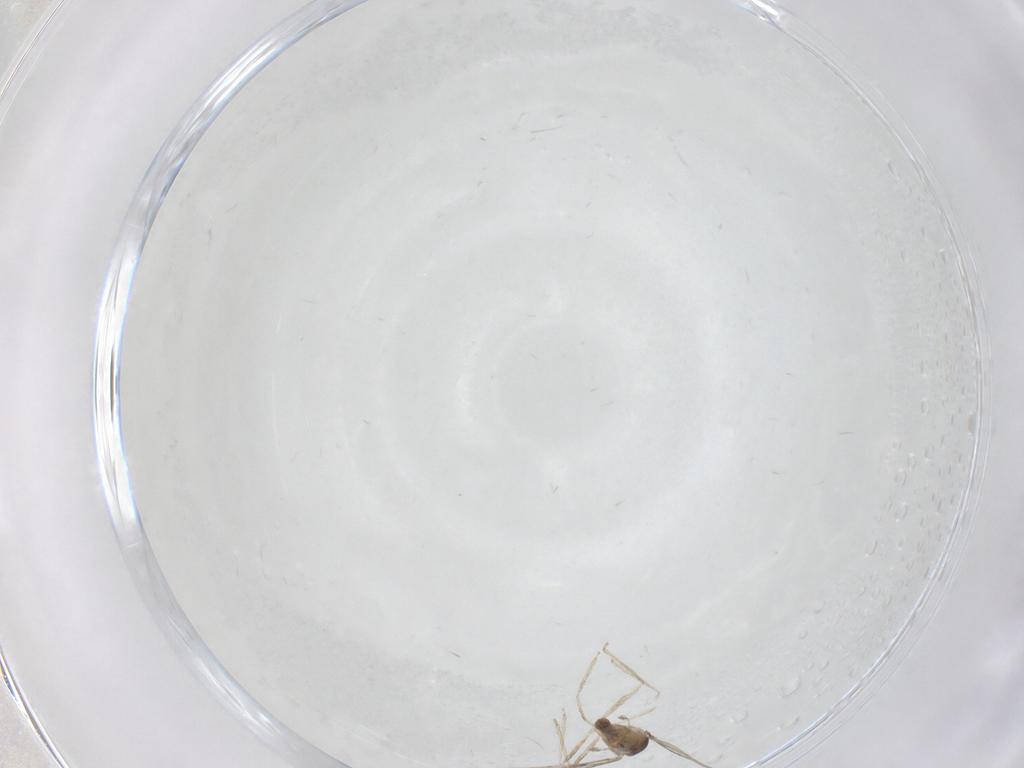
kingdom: Animalia
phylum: Arthropoda
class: Insecta
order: Diptera
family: Cecidomyiidae
